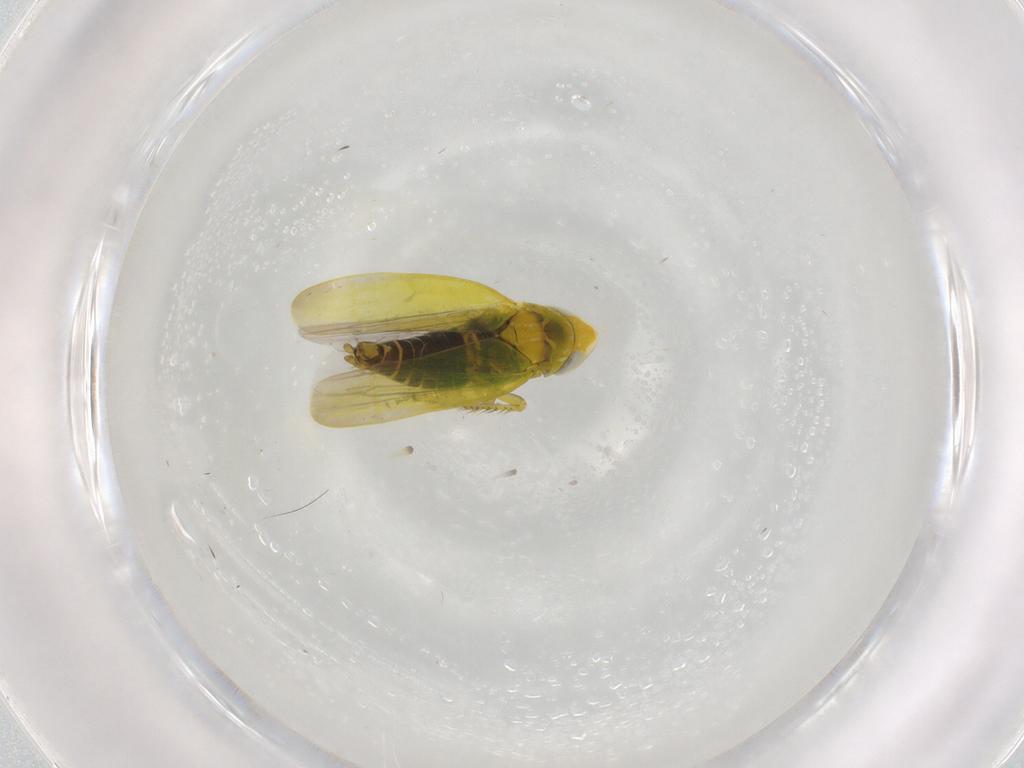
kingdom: Animalia
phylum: Arthropoda
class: Insecta
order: Hemiptera
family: Cicadellidae
